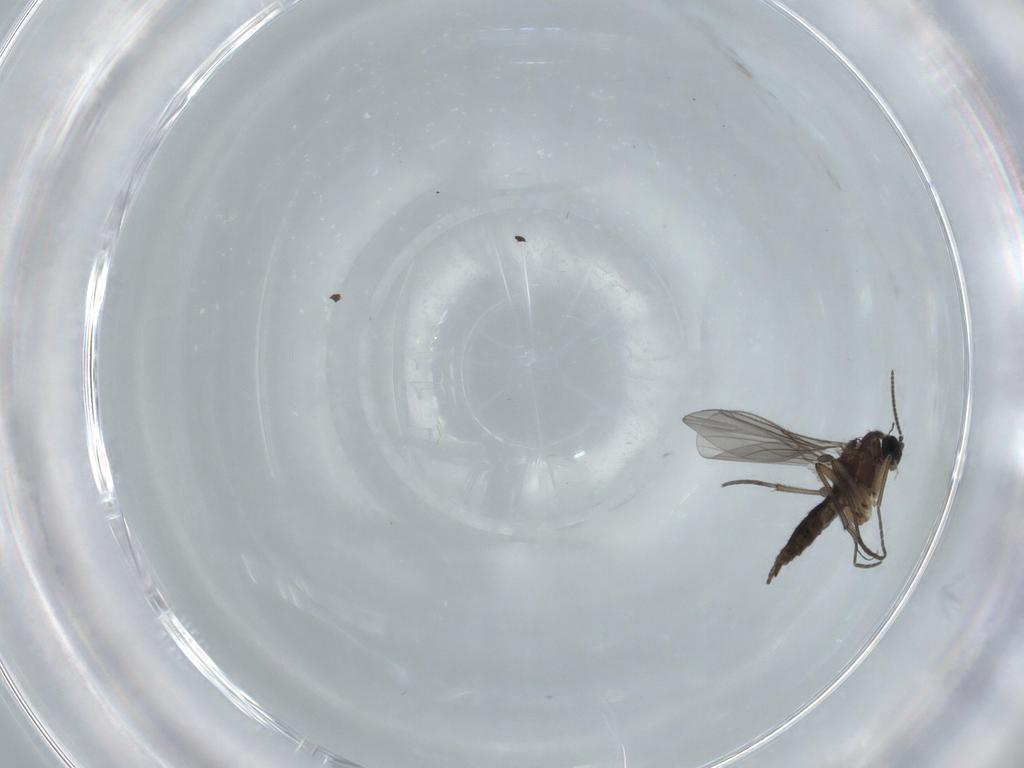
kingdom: Animalia
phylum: Arthropoda
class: Insecta
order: Diptera
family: Sciaridae
